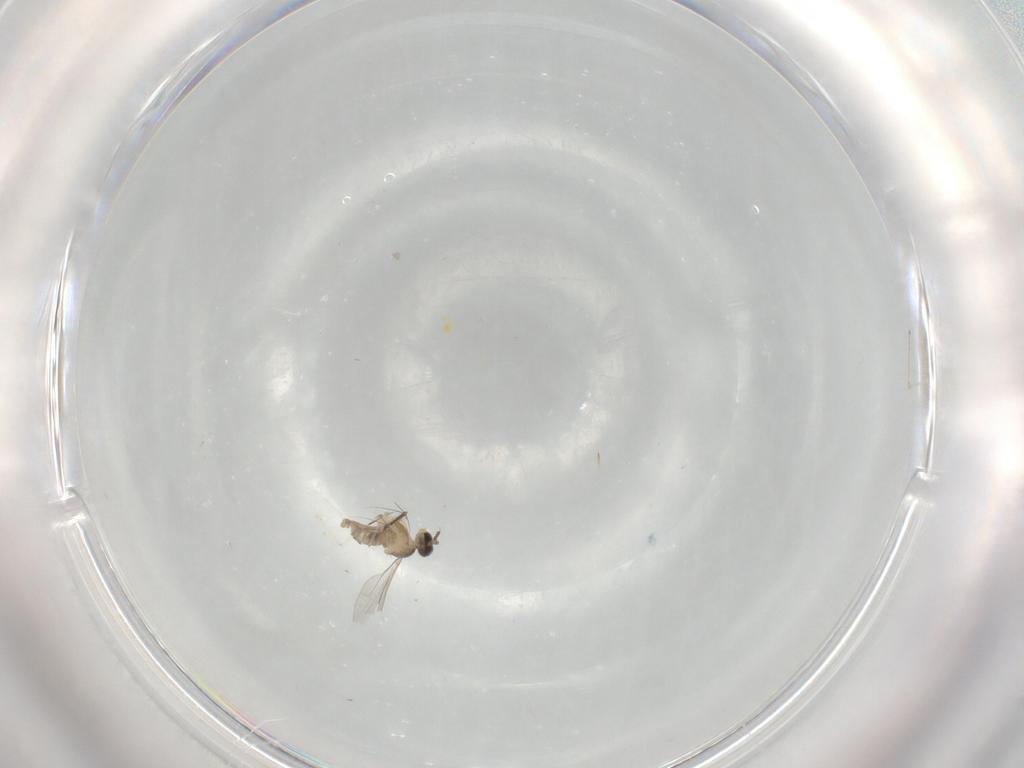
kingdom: Animalia
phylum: Arthropoda
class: Insecta
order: Diptera
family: Culicidae
